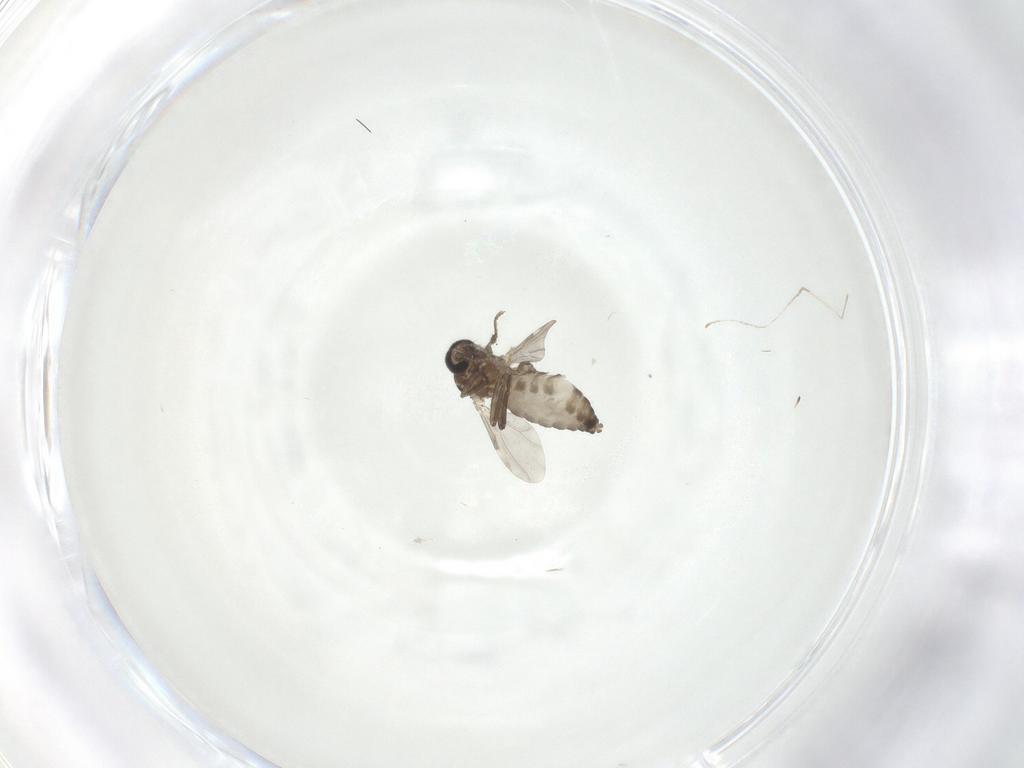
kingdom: Animalia
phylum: Arthropoda
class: Insecta
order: Diptera
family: Ceratopogonidae
